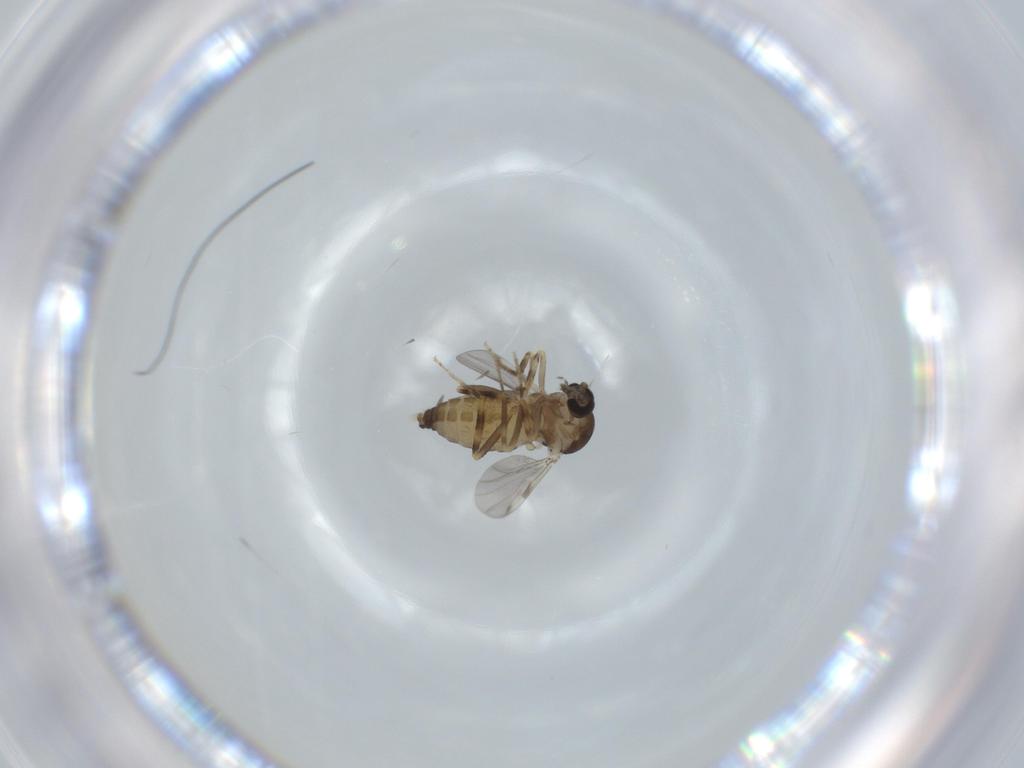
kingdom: Animalia
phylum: Arthropoda
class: Insecta
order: Diptera
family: Ceratopogonidae
